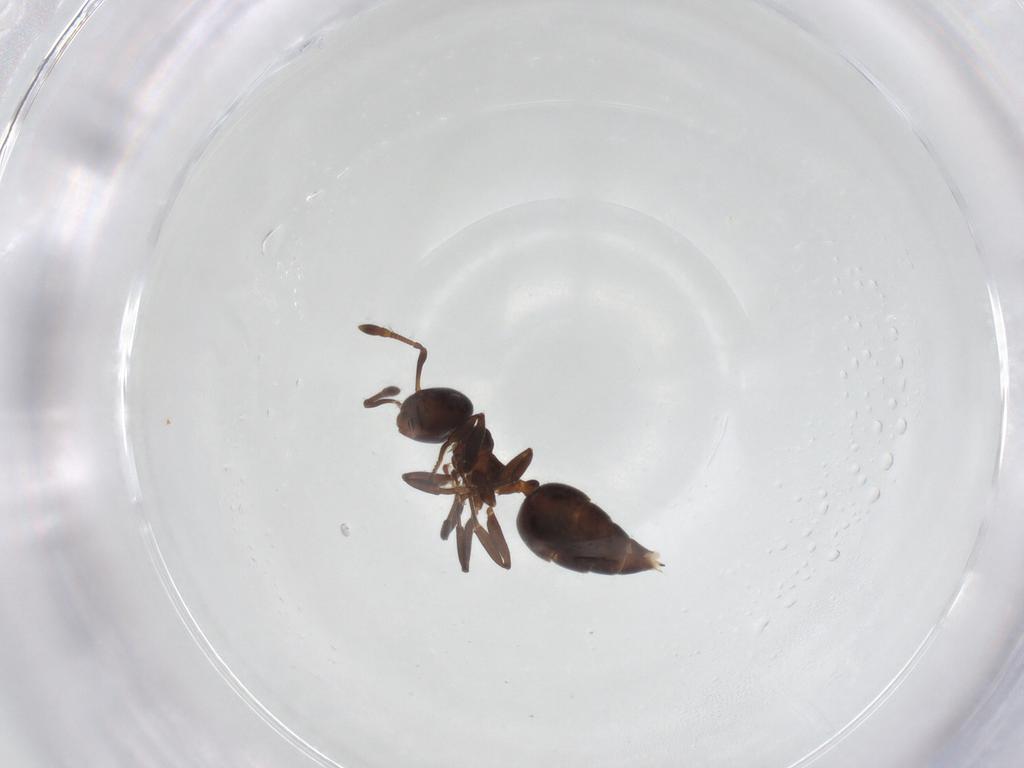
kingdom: Animalia
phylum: Arthropoda
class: Insecta
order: Hymenoptera
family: Formicidae
